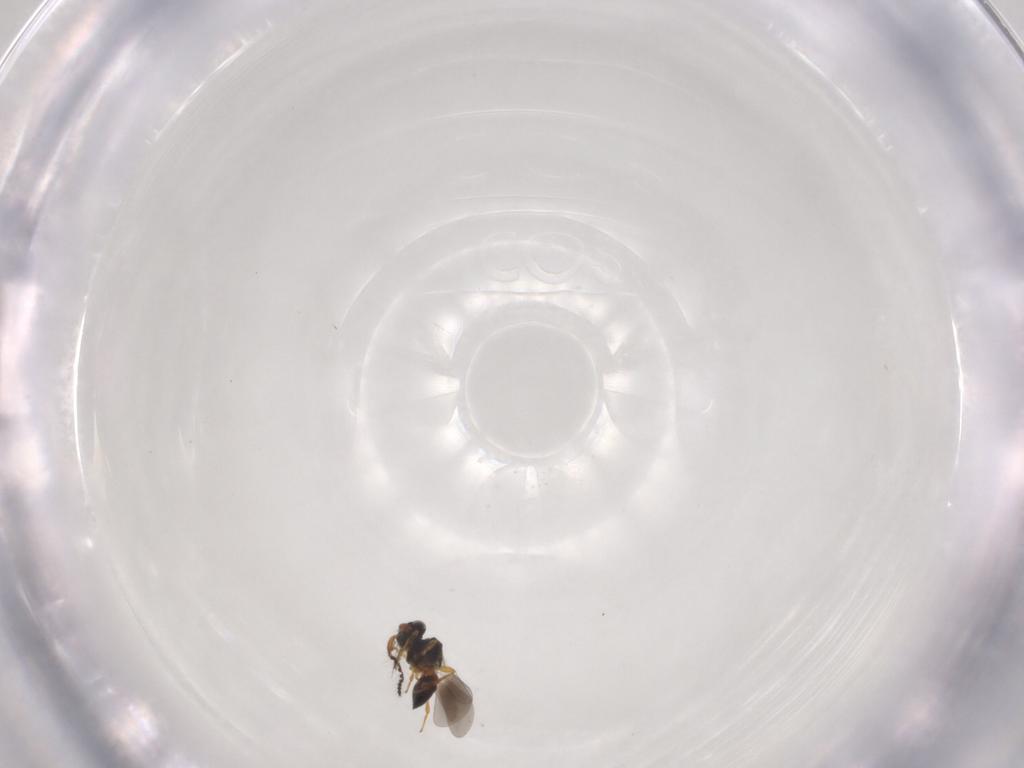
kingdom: Animalia
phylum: Arthropoda
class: Insecta
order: Hymenoptera
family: Platygastridae
